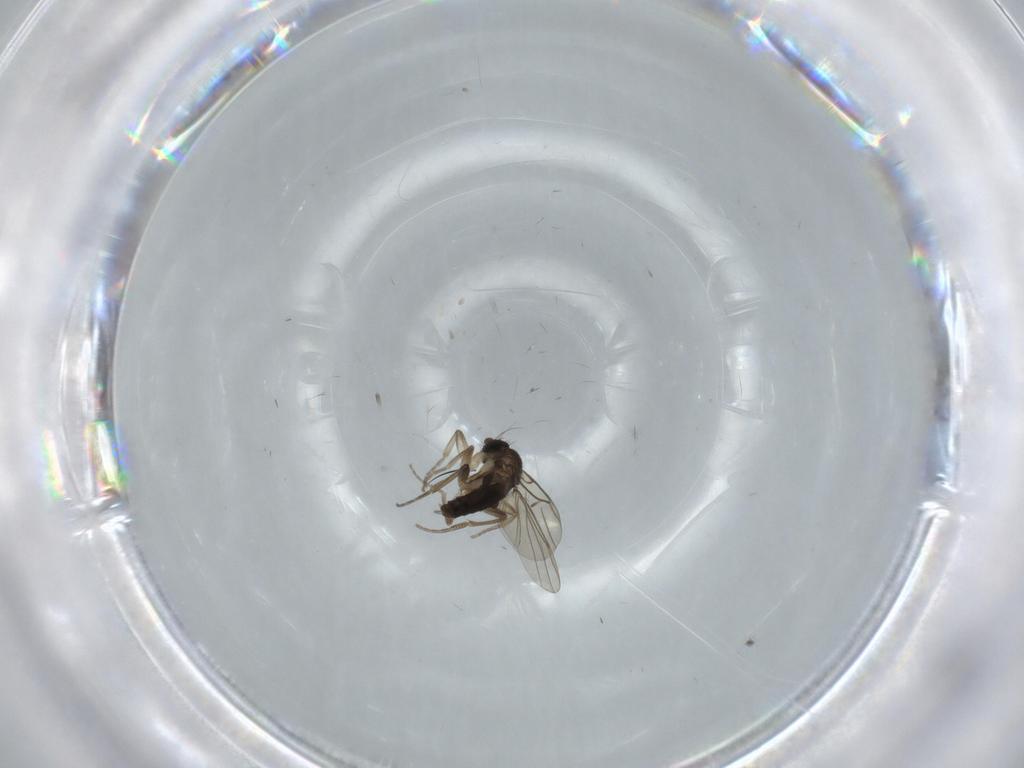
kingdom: Animalia
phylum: Arthropoda
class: Insecta
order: Diptera
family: Phoridae
